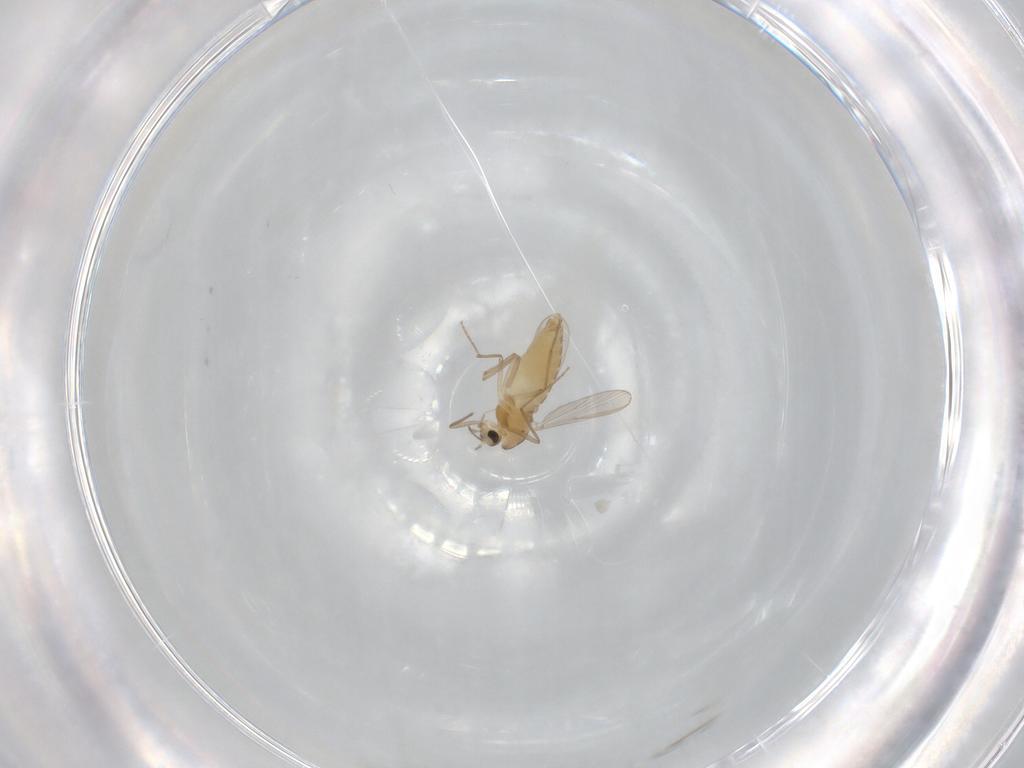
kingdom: Animalia
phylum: Arthropoda
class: Insecta
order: Diptera
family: Chironomidae
